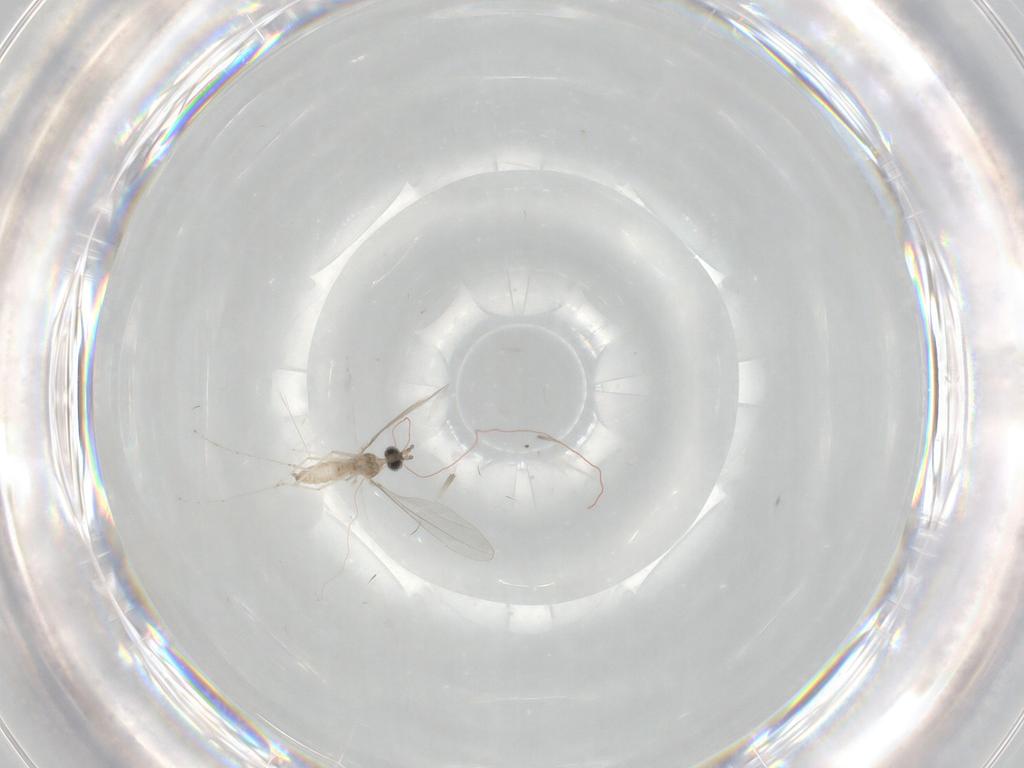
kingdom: Animalia
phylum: Arthropoda
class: Insecta
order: Diptera
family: Cecidomyiidae
